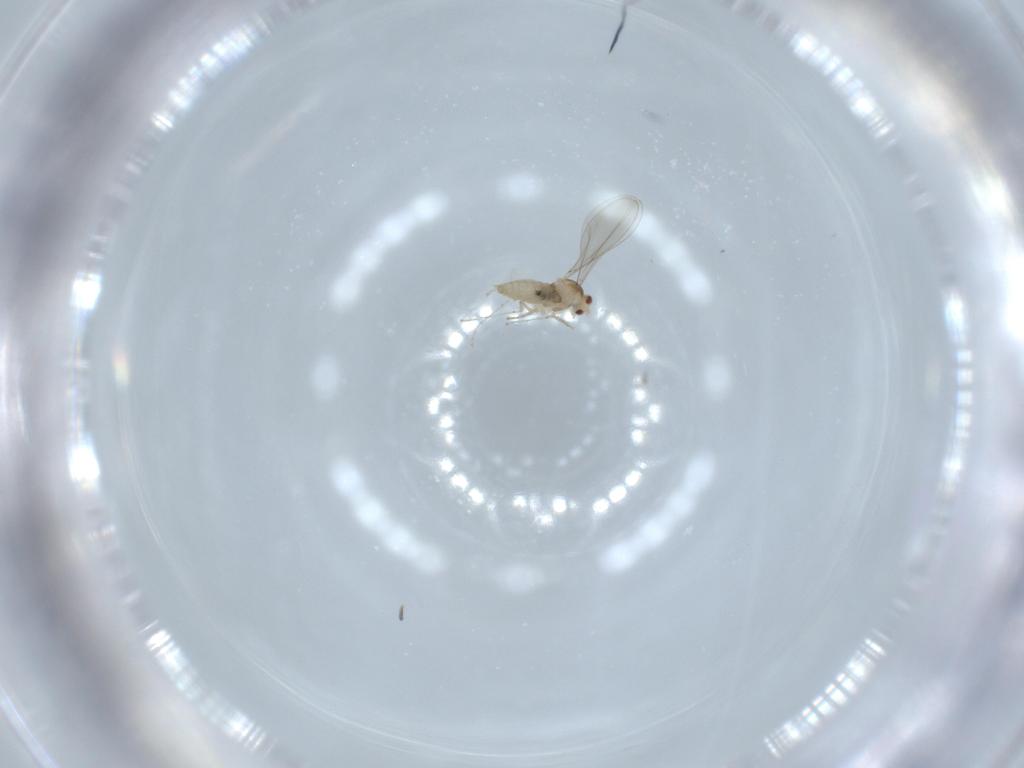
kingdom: Animalia
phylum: Arthropoda
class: Insecta
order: Diptera
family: Cecidomyiidae
